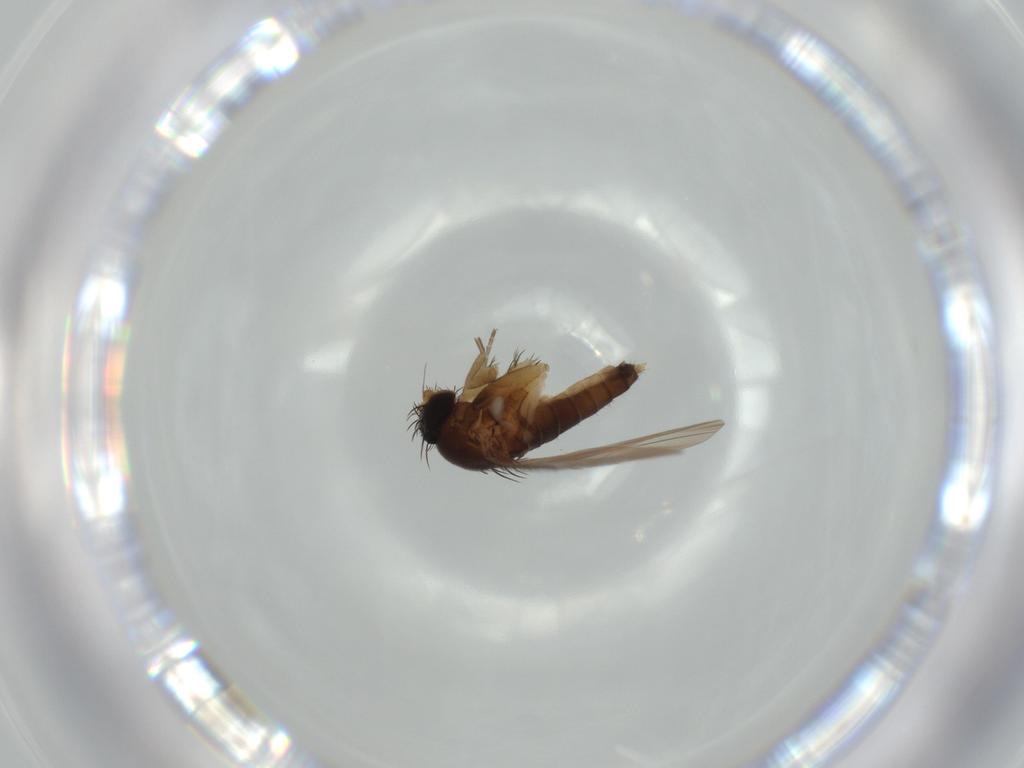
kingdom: Animalia
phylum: Arthropoda
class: Insecta
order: Diptera
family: Phoridae
